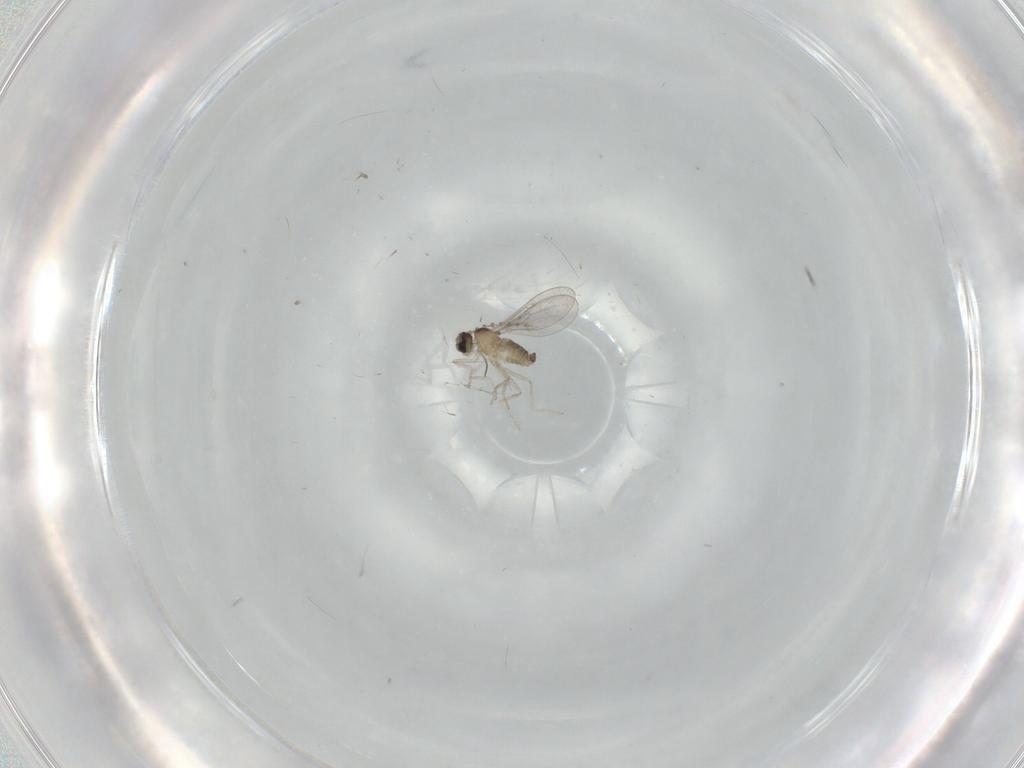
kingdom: Animalia
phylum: Arthropoda
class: Insecta
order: Diptera
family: Cecidomyiidae
